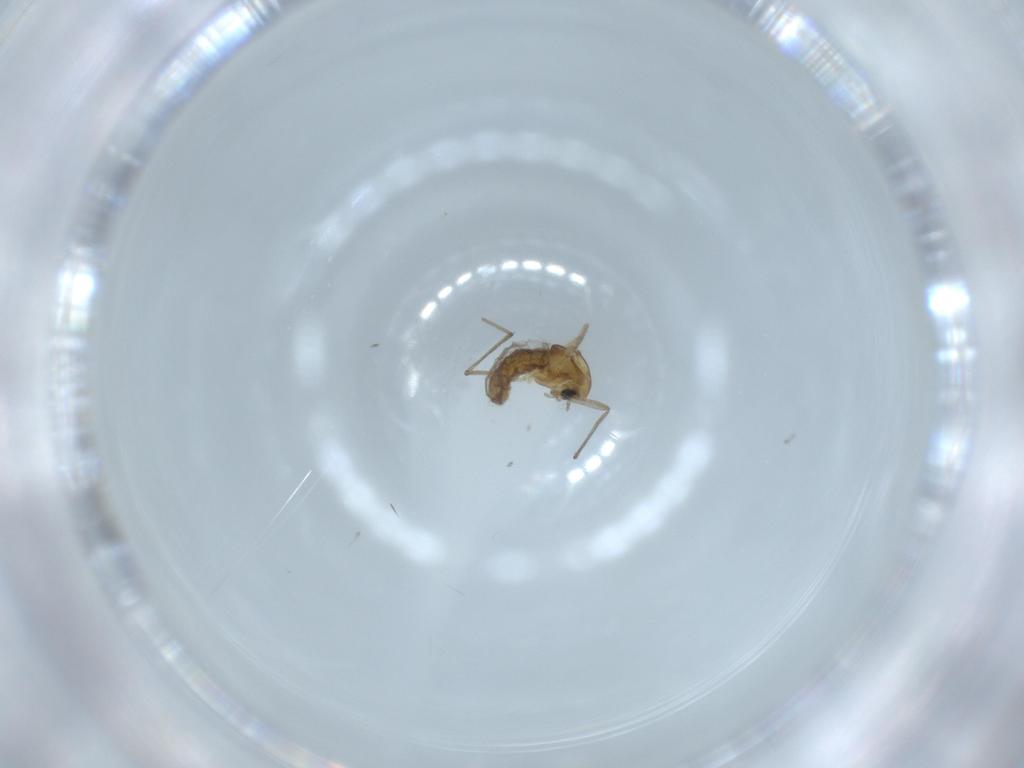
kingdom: Animalia
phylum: Arthropoda
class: Insecta
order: Diptera
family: Chironomidae
